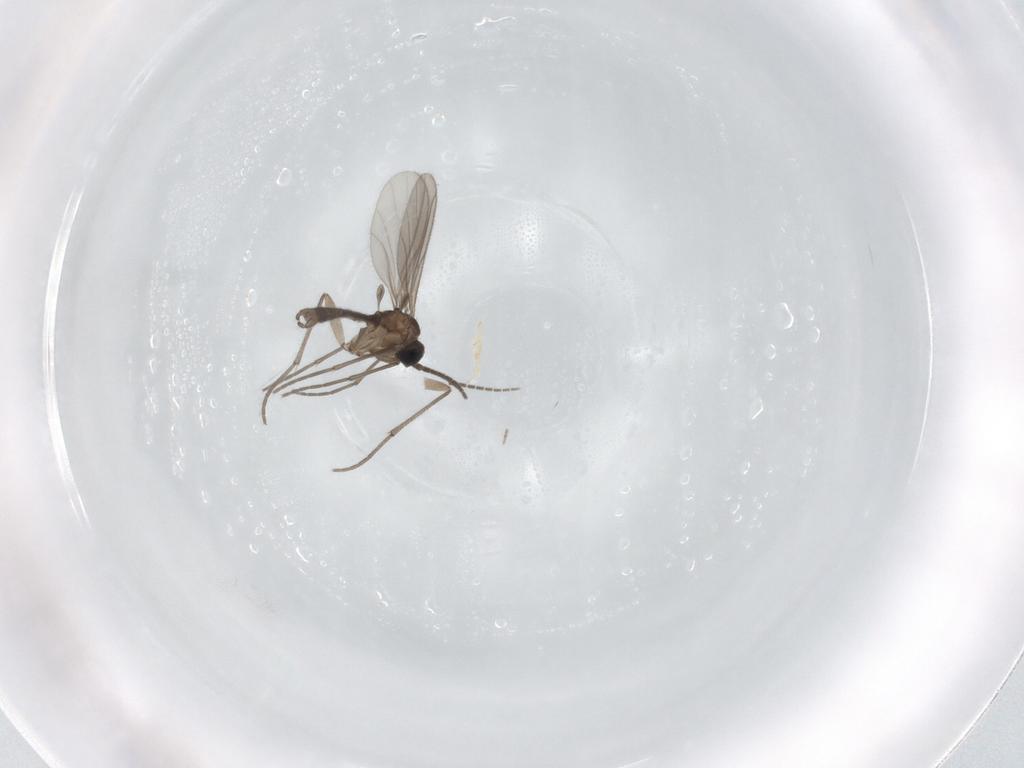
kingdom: Animalia
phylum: Arthropoda
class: Insecta
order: Diptera
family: Sciaridae
